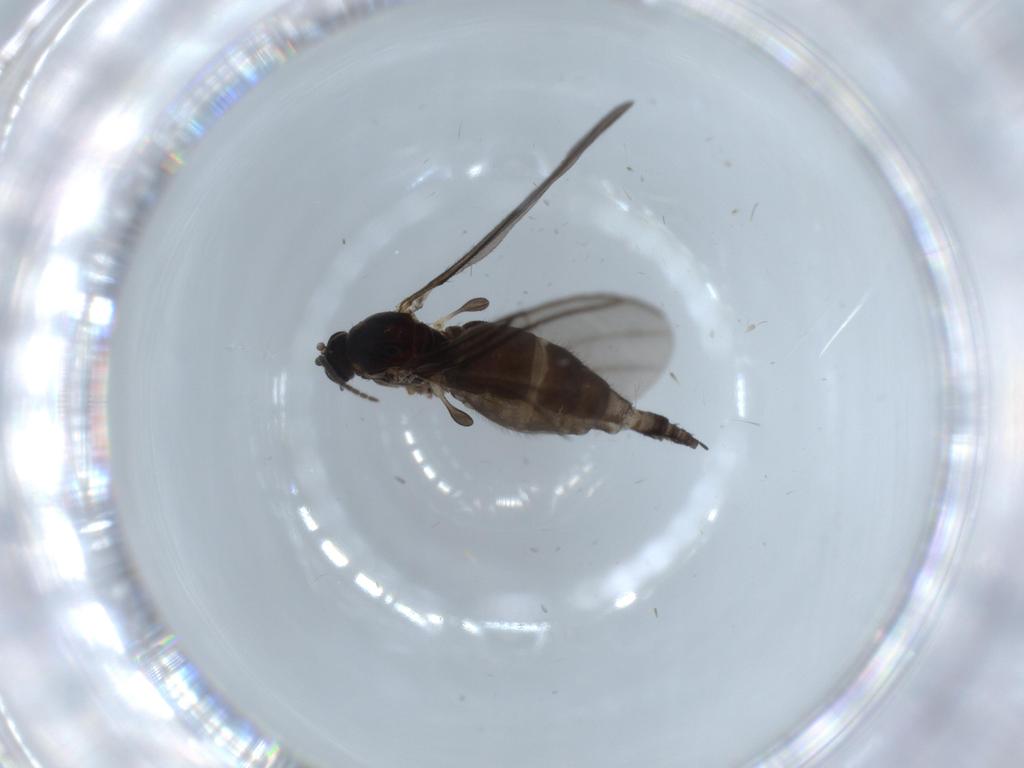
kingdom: Animalia
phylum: Arthropoda
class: Insecta
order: Diptera
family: Sciaridae
